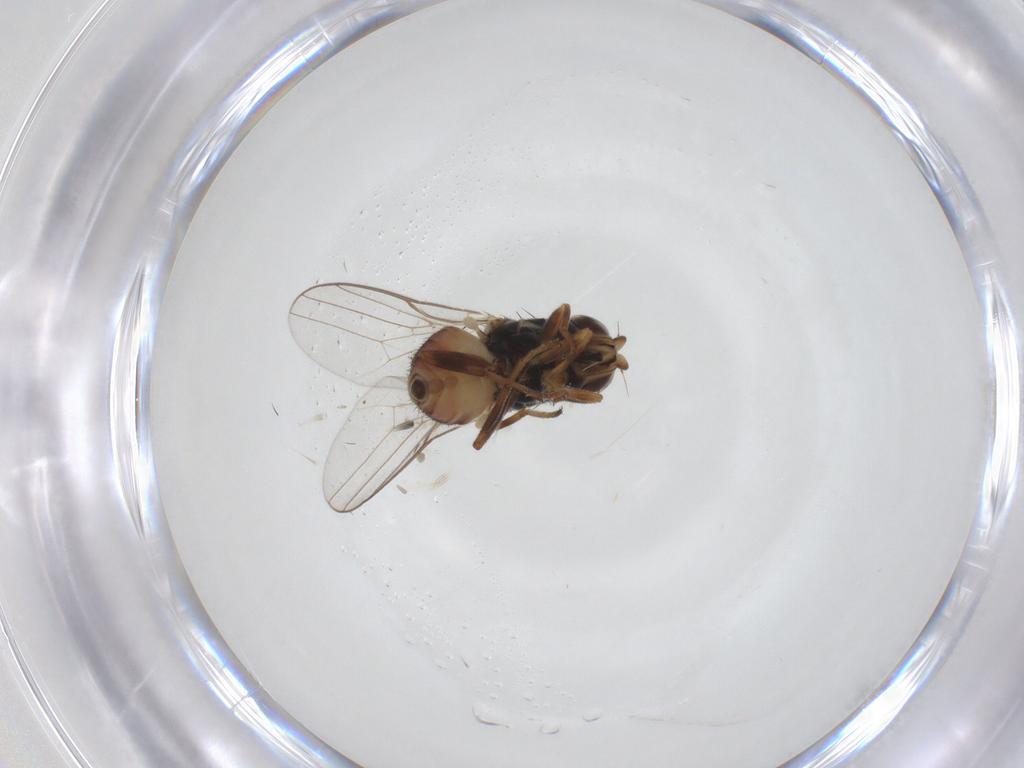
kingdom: Animalia
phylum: Arthropoda
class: Insecta
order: Diptera
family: Chloropidae
